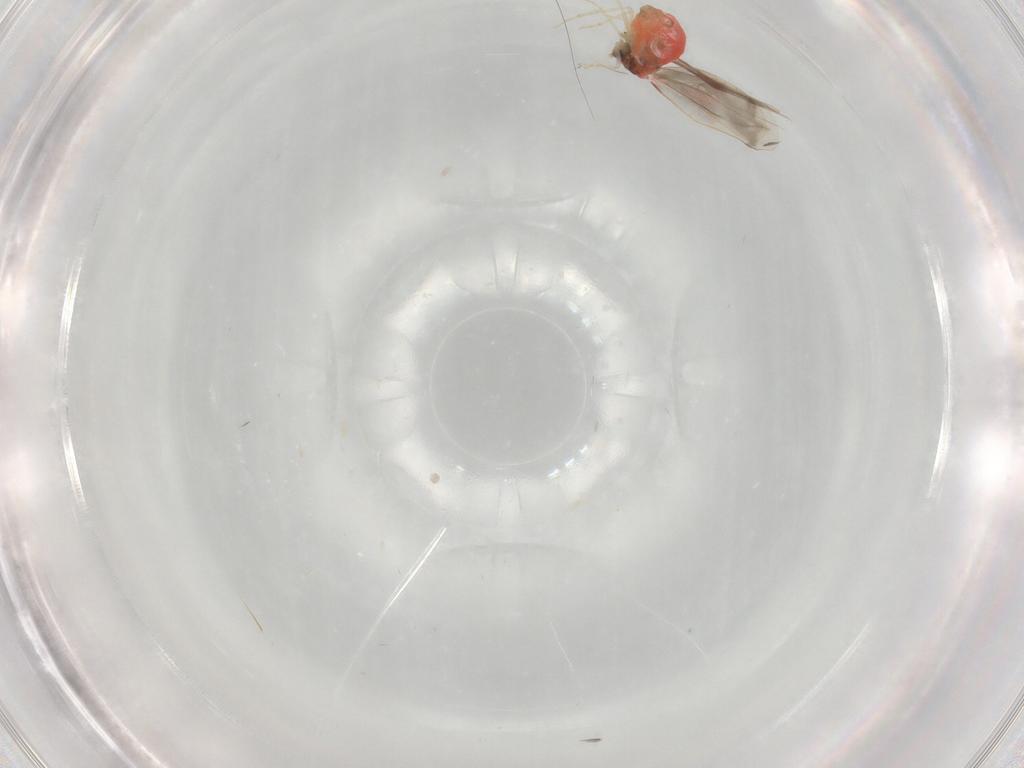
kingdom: Animalia
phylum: Arthropoda
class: Insecta
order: Hemiptera
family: Aleyrodidae
